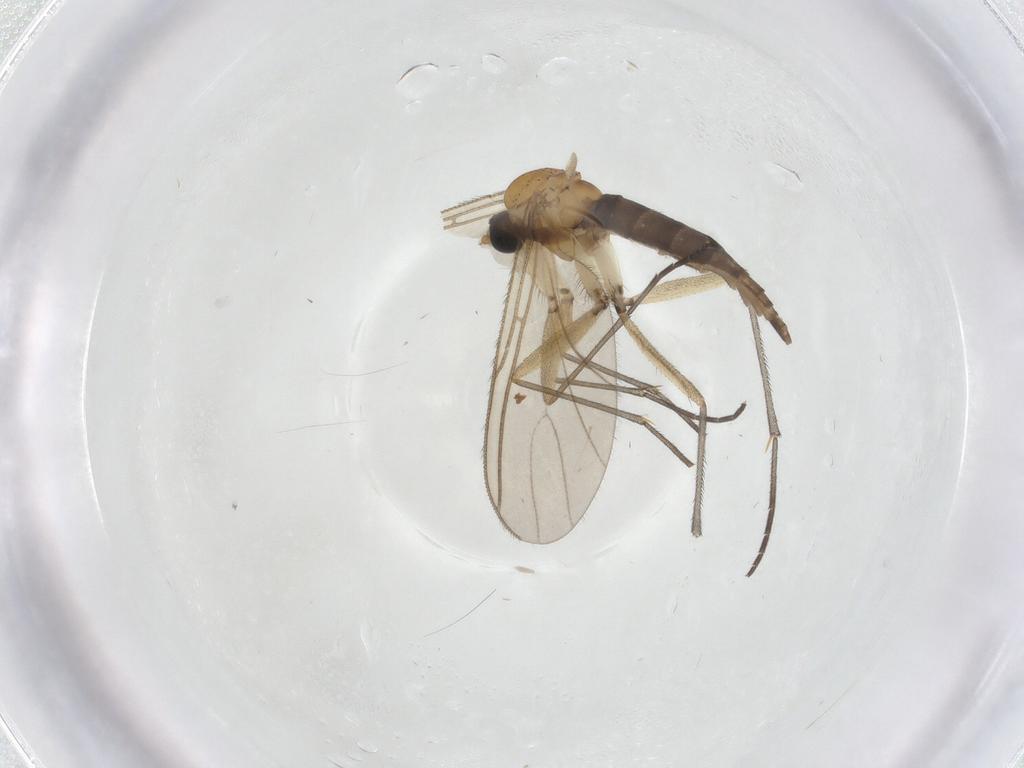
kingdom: Animalia
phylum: Arthropoda
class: Insecta
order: Diptera
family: Sciaridae
